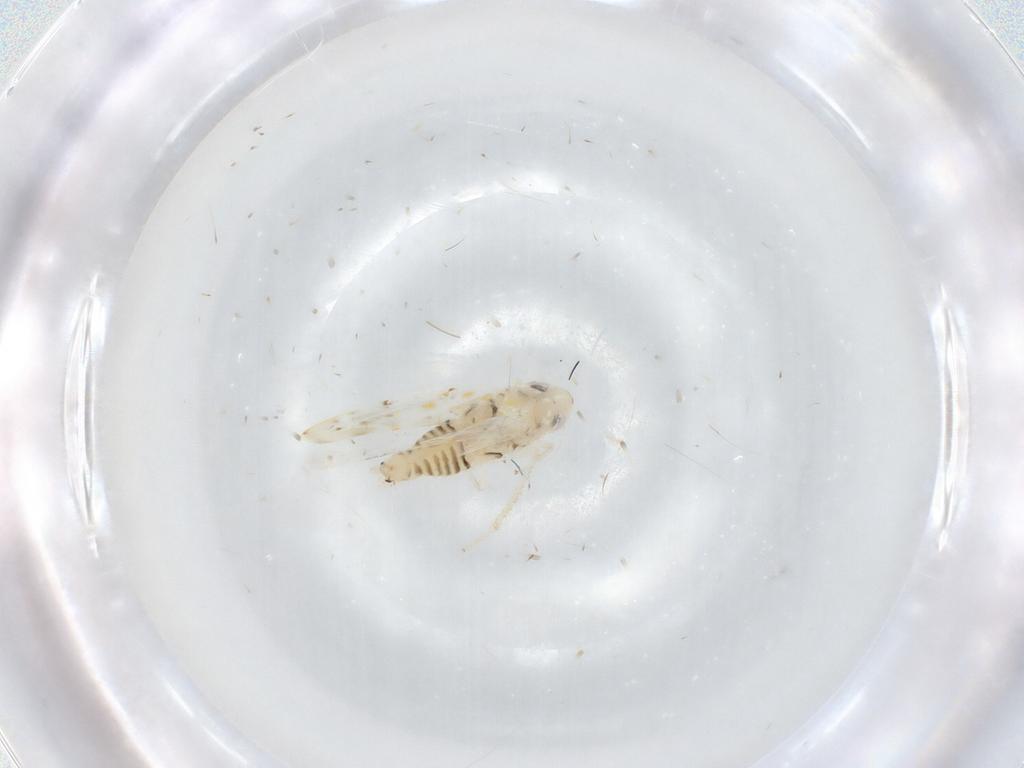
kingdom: Animalia
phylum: Arthropoda
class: Insecta
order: Hemiptera
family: Cicadellidae
